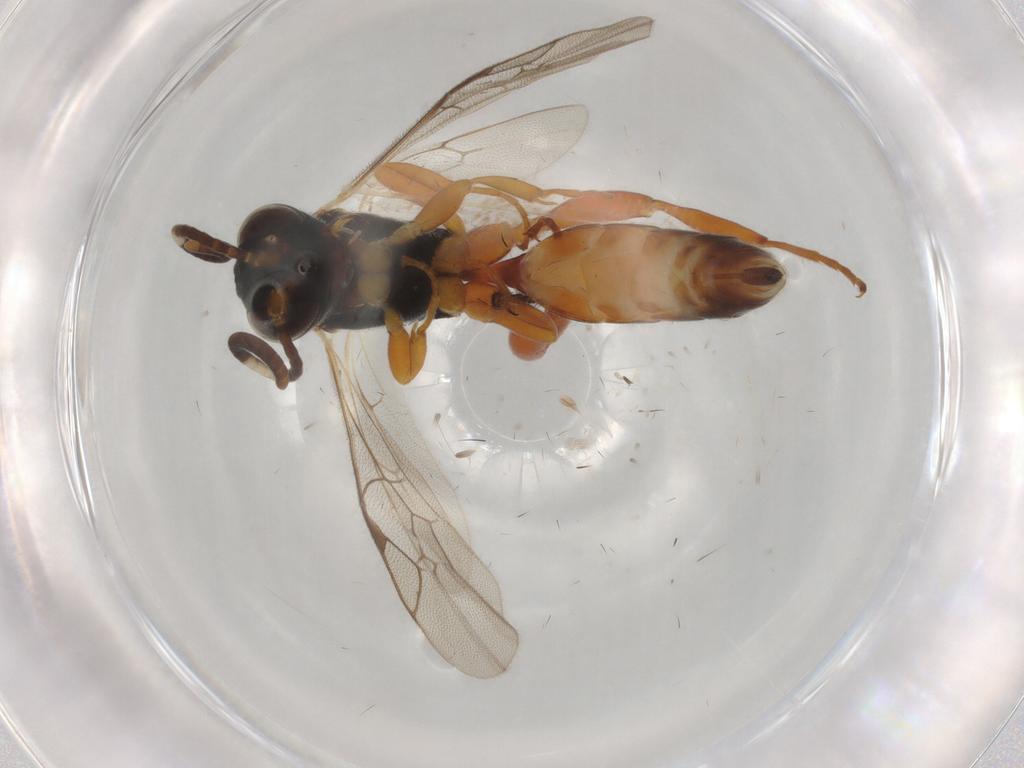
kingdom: Animalia
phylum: Arthropoda
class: Insecta
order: Hymenoptera
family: Ichneumonidae
